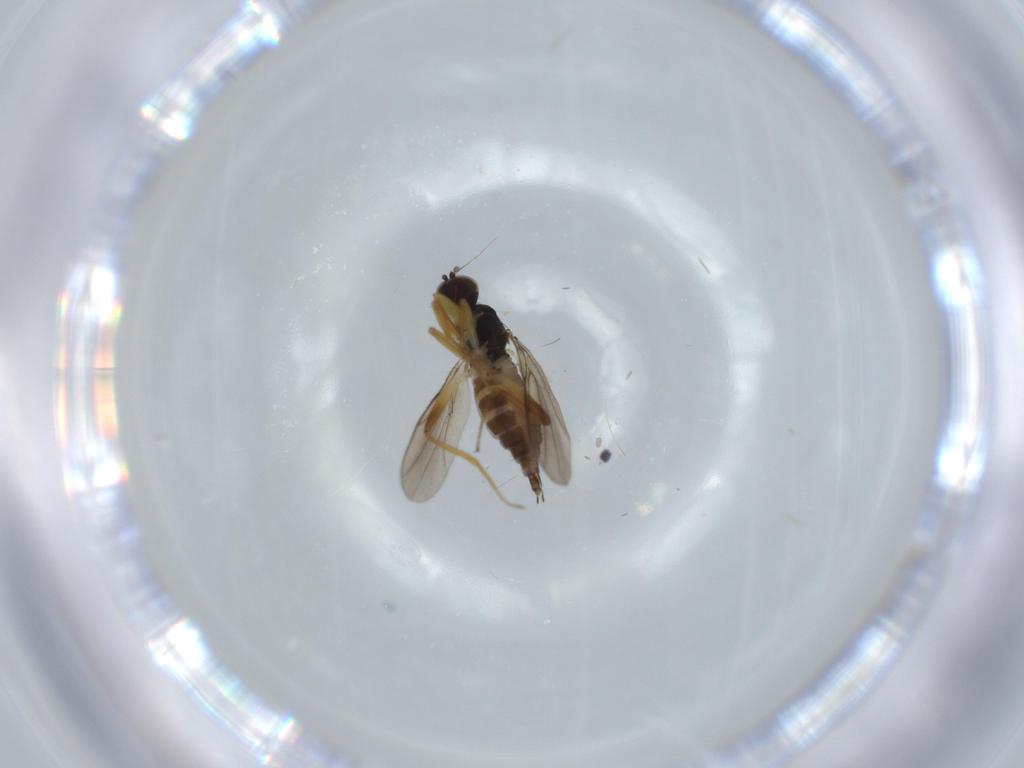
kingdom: Animalia
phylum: Arthropoda
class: Insecta
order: Diptera
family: Hybotidae
